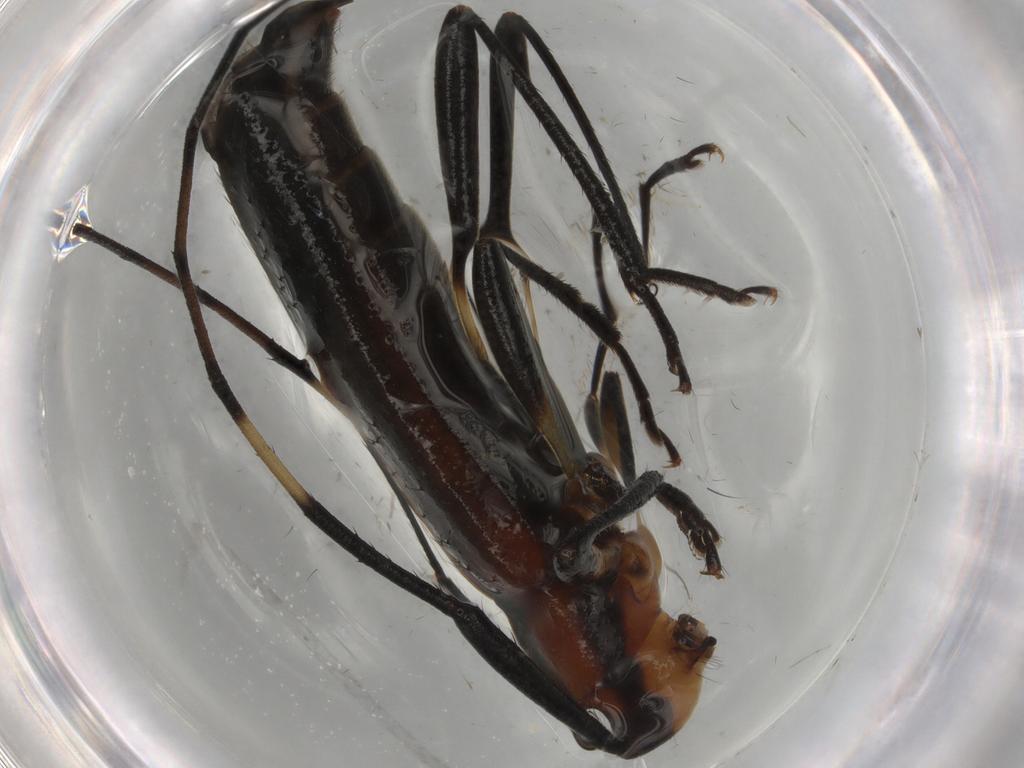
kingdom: Animalia
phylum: Arthropoda
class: Insecta
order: Coleoptera
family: Cerambycidae
